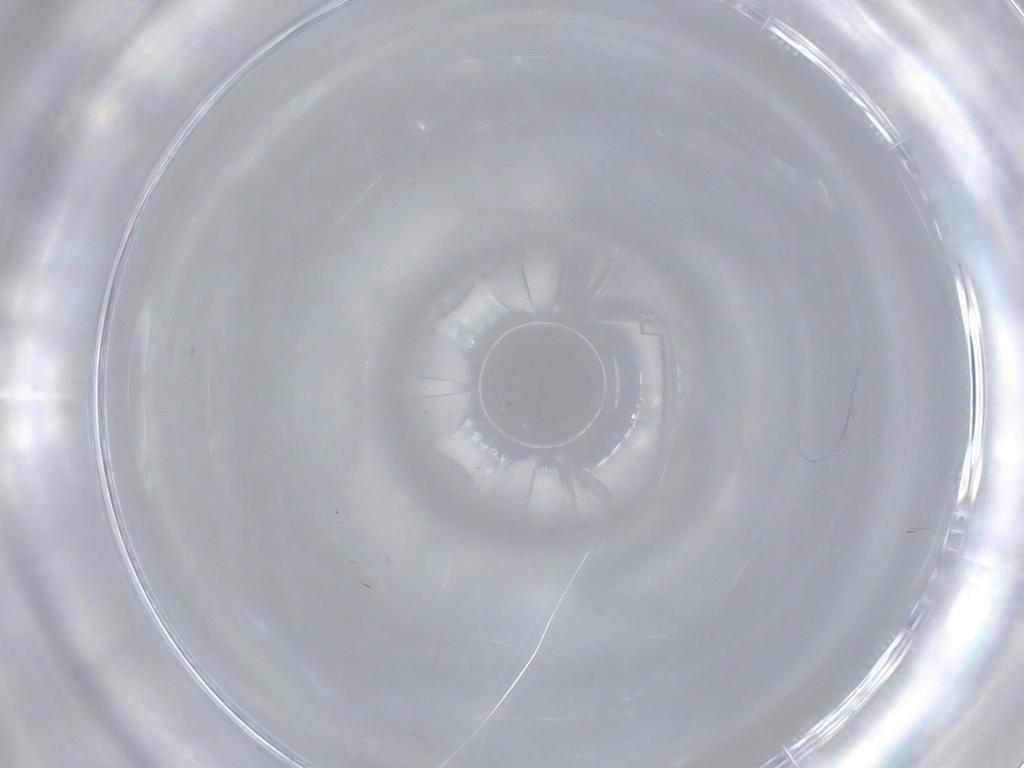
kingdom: Animalia
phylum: Arthropoda
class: Insecta
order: Diptera
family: Cecidomyiidae
